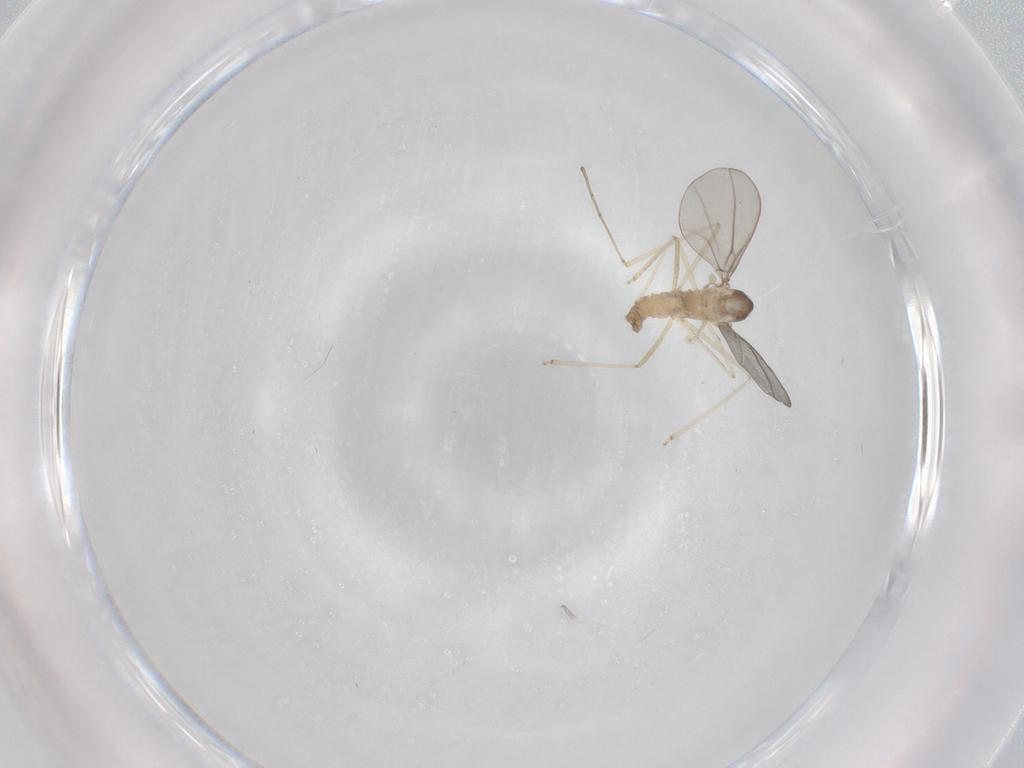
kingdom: Animalia
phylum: Arthropoda
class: Insecta
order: Diptera
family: Cecidomyiidae
